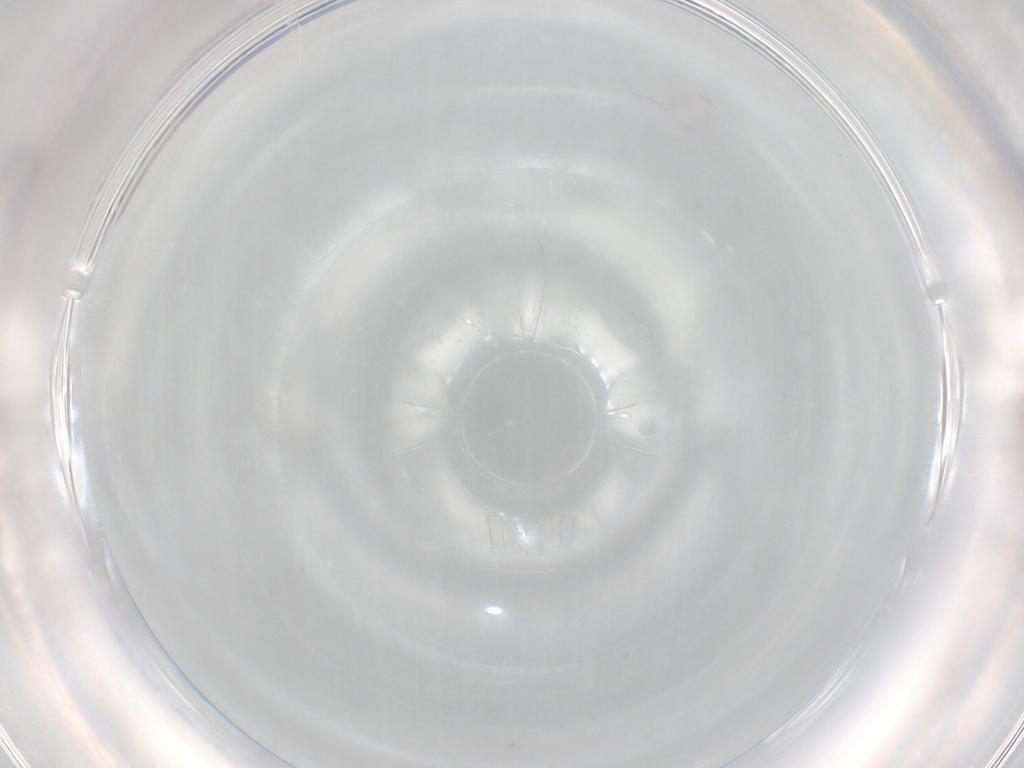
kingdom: Animalia
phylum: Arthropoda
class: Insecta
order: Diptera
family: Cecidomyiidae
